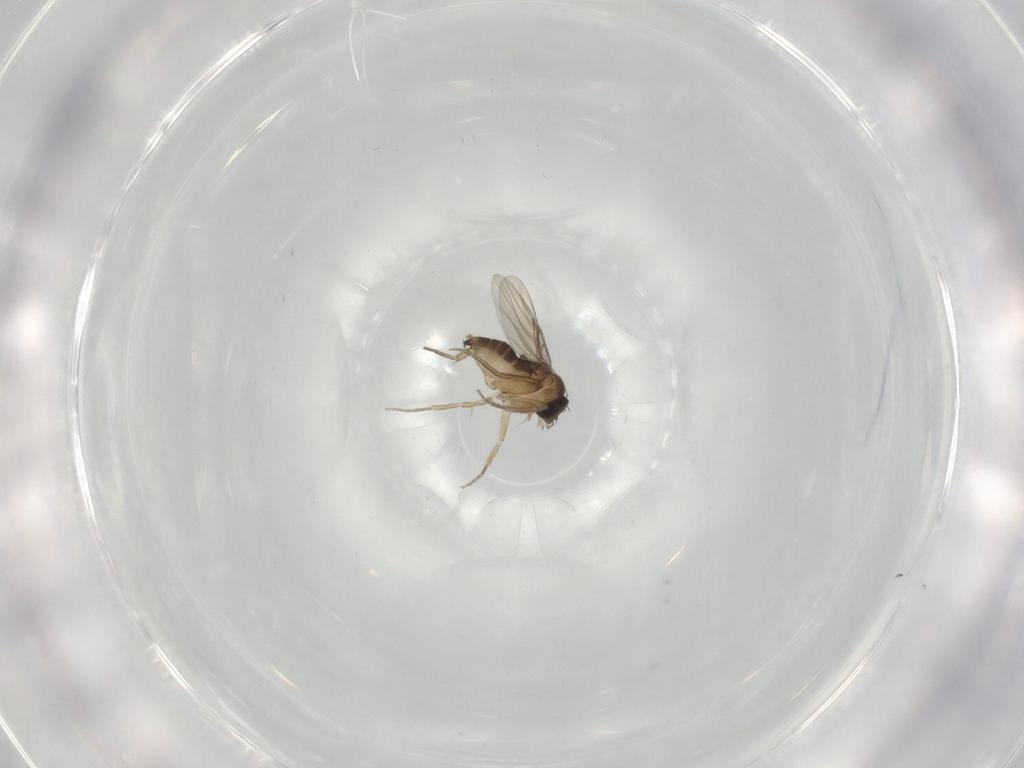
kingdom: Animalia
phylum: Arthropoda
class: Insecta
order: Diptera
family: Phoridae
